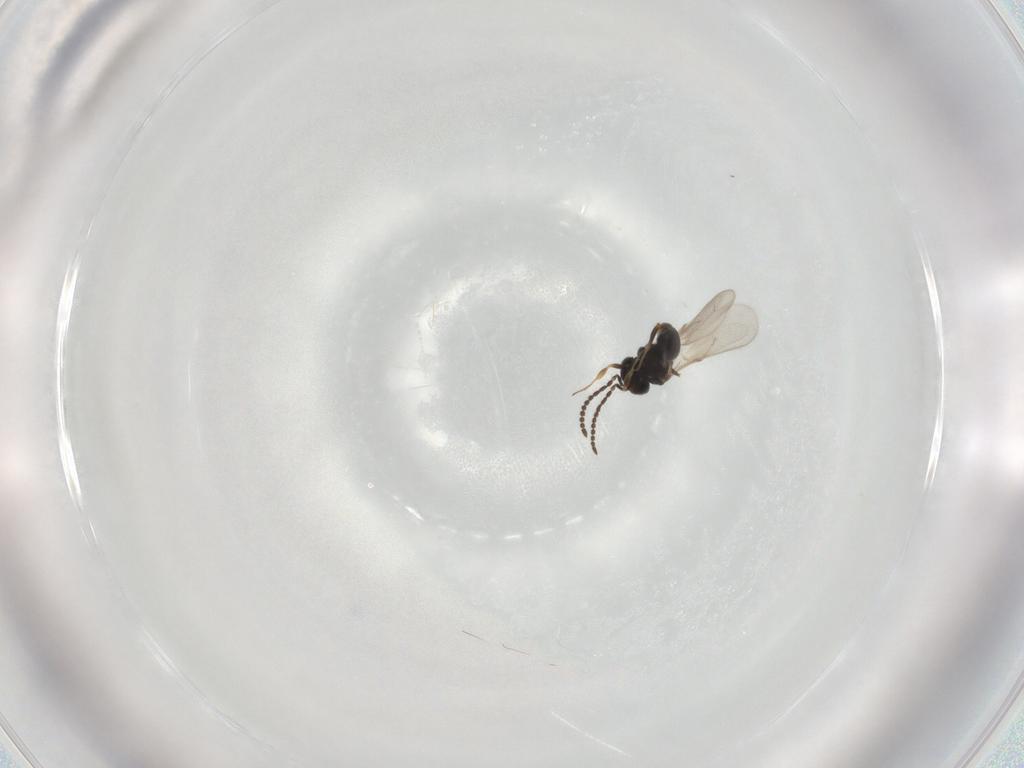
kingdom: Animalia
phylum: Arthropoda
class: Insecta
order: Hymenoptera
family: Scelionidae
